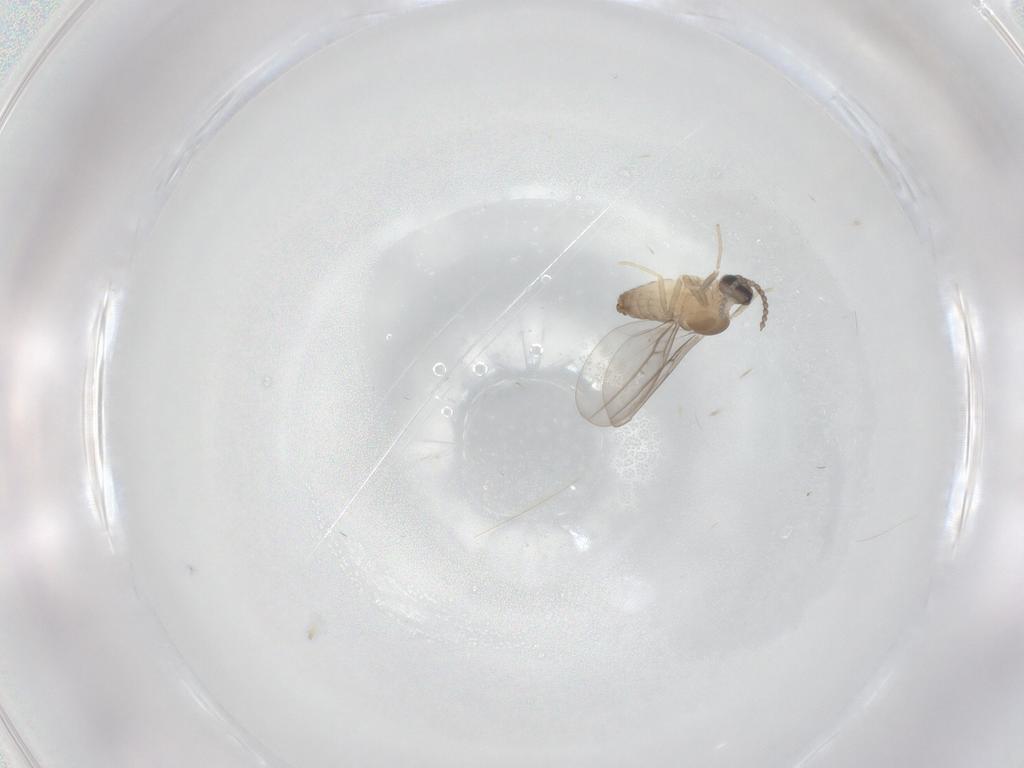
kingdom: Animalia
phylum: Arthropoda
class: Insecta
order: Diptera
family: Cecidomyiidae
